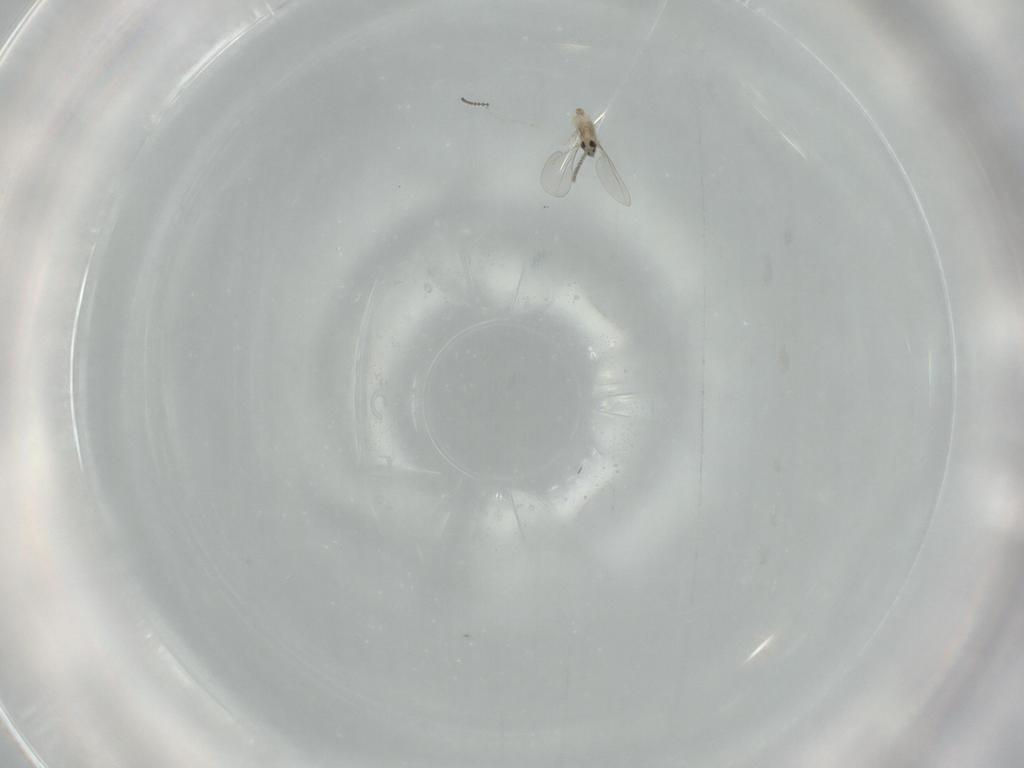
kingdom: Animalia
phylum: Arthropoda
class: Insecta
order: Diptera
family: Cecidomyiidae
